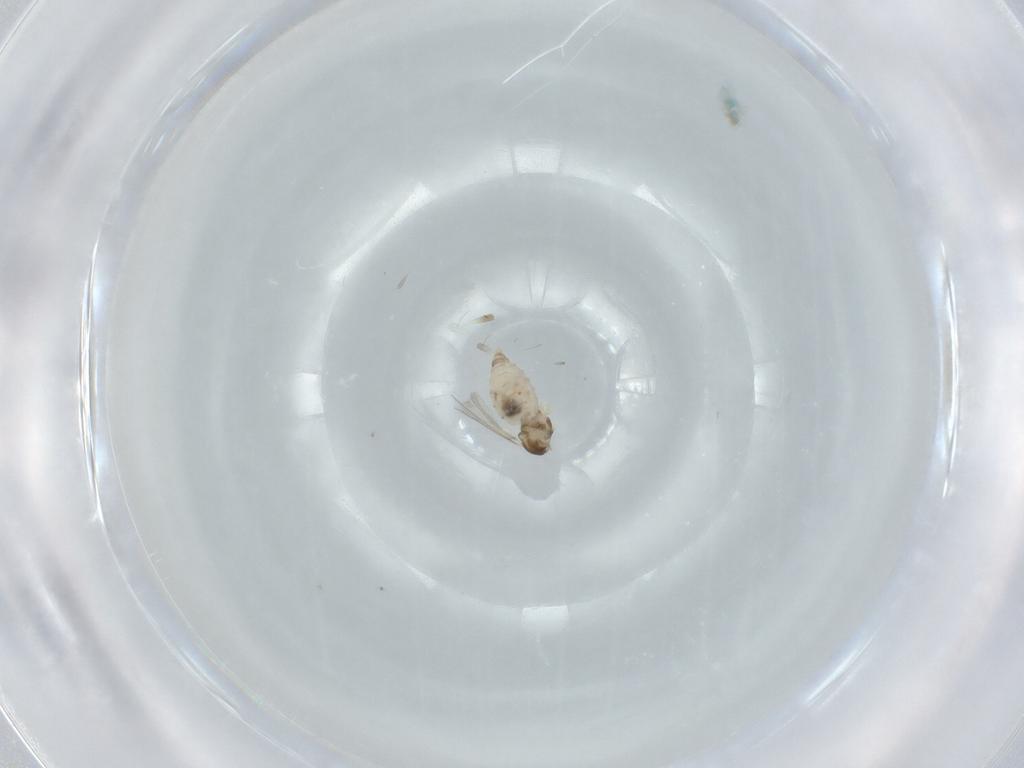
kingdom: Animalia
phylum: Arthropoda
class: Insecta
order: Diptera
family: Cecidomyiidae
